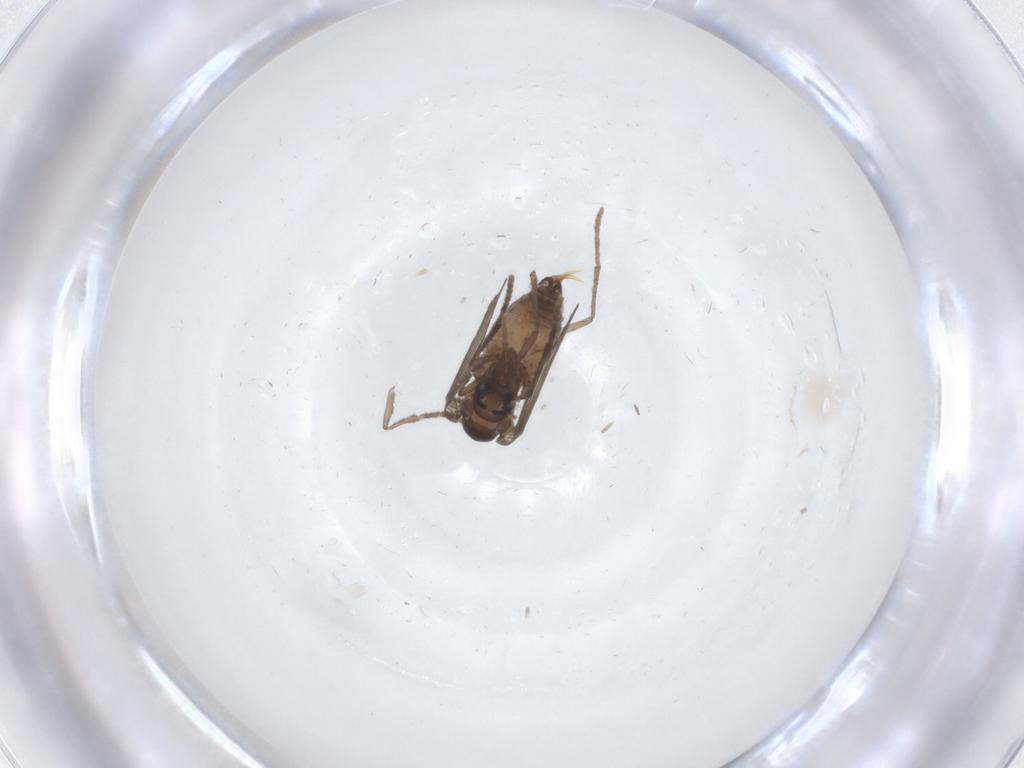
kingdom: Animalia
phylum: Arthropoda
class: Insecta
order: Diptera
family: Psychodidae
